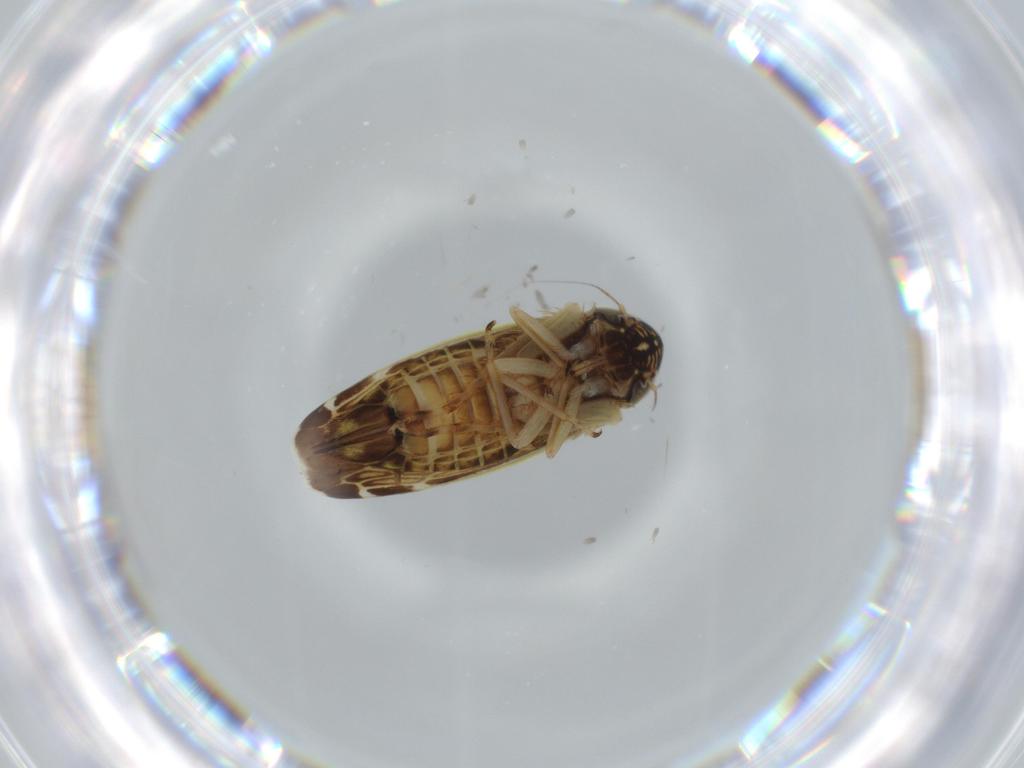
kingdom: Animalia
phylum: Arthropoda
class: Insecta
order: Hemiptera
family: Cicadellidae
